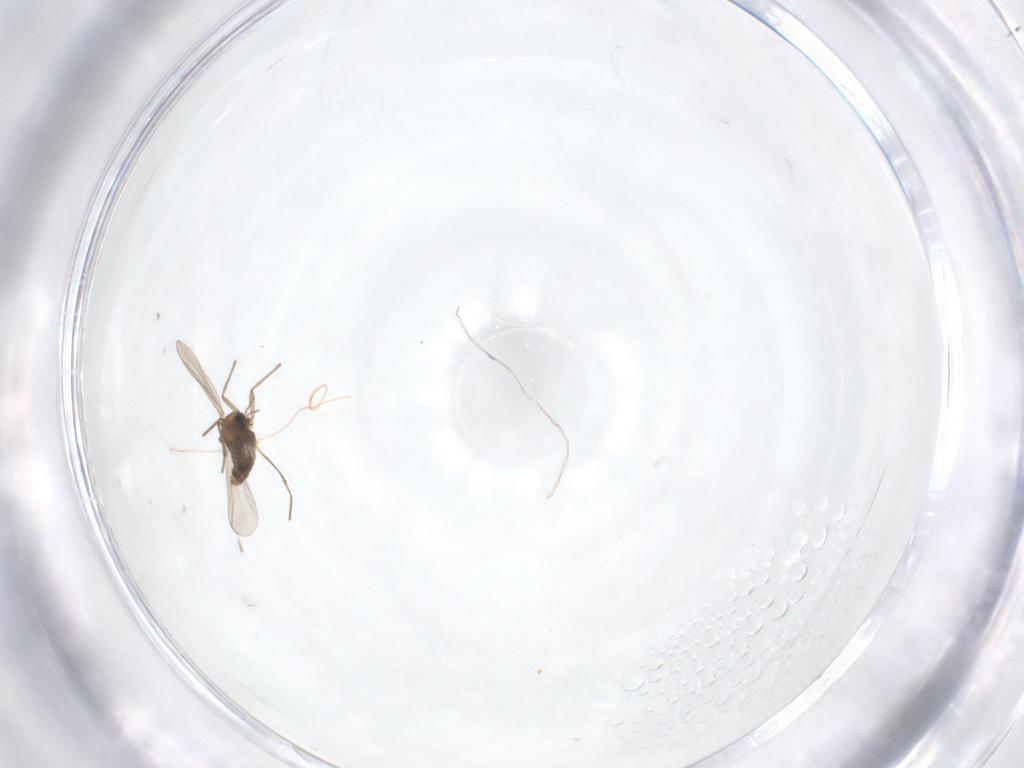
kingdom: Animalia
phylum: Arthropoda
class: Insecta
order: Diptera
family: Chironomidae
